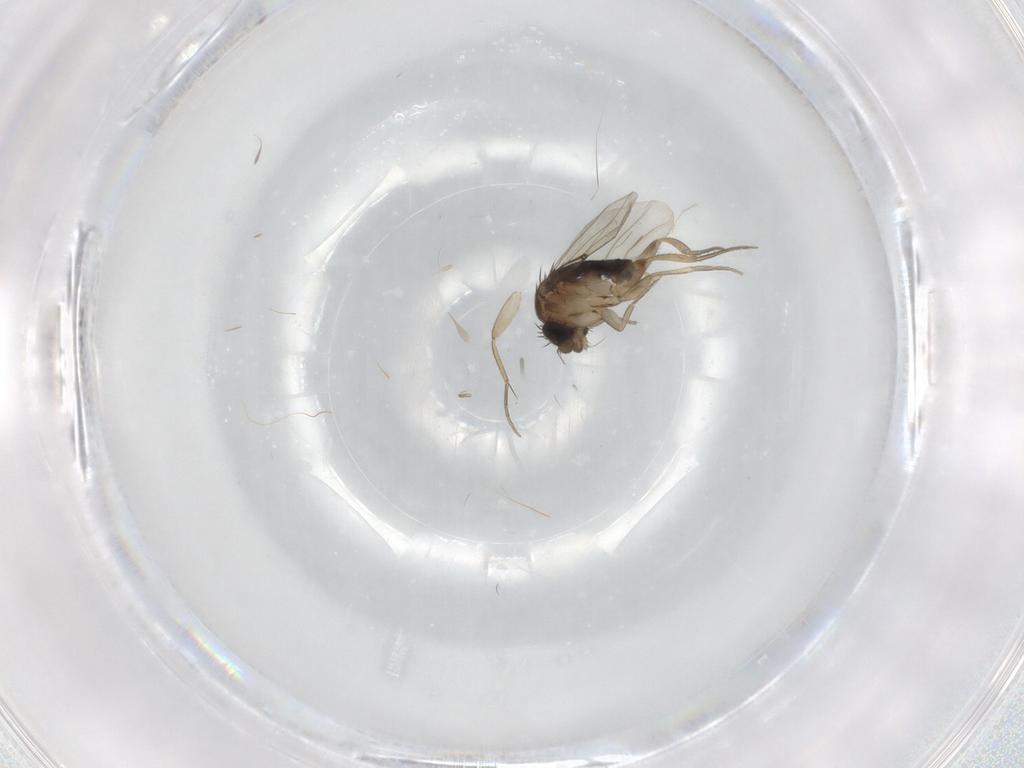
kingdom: Animalia
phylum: Arthropoda
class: Insecta
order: Diptera
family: Phoridae
